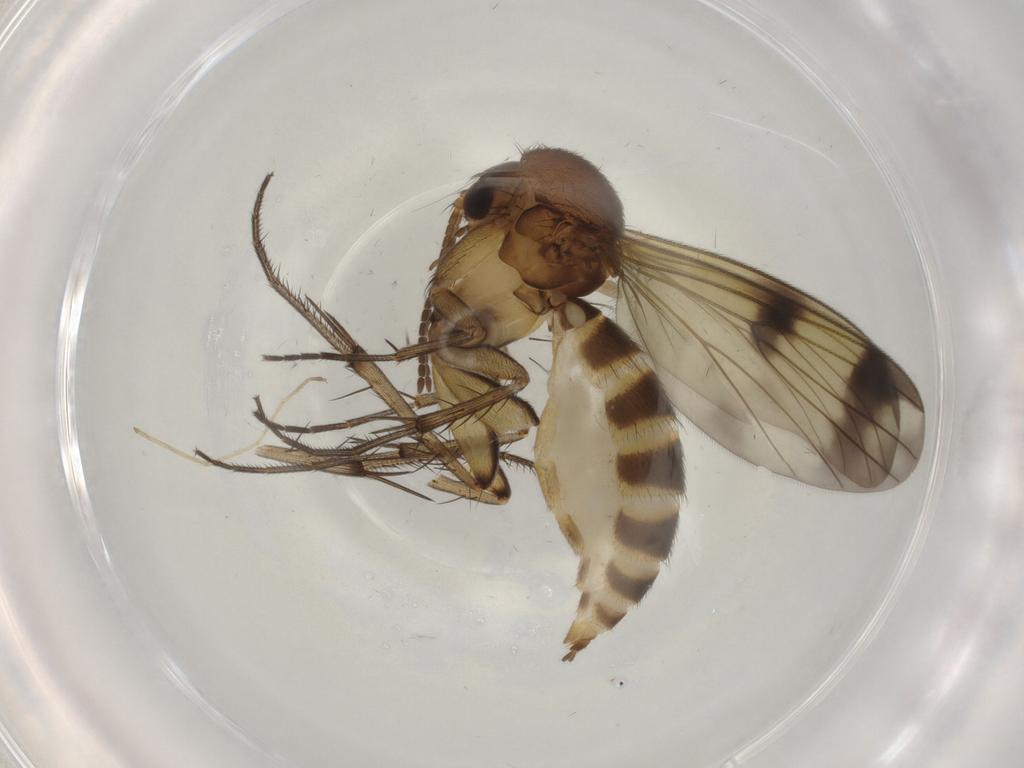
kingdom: Animalia
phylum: Arthropoda
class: Insecta
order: Diptera
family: Mycetophilidae
